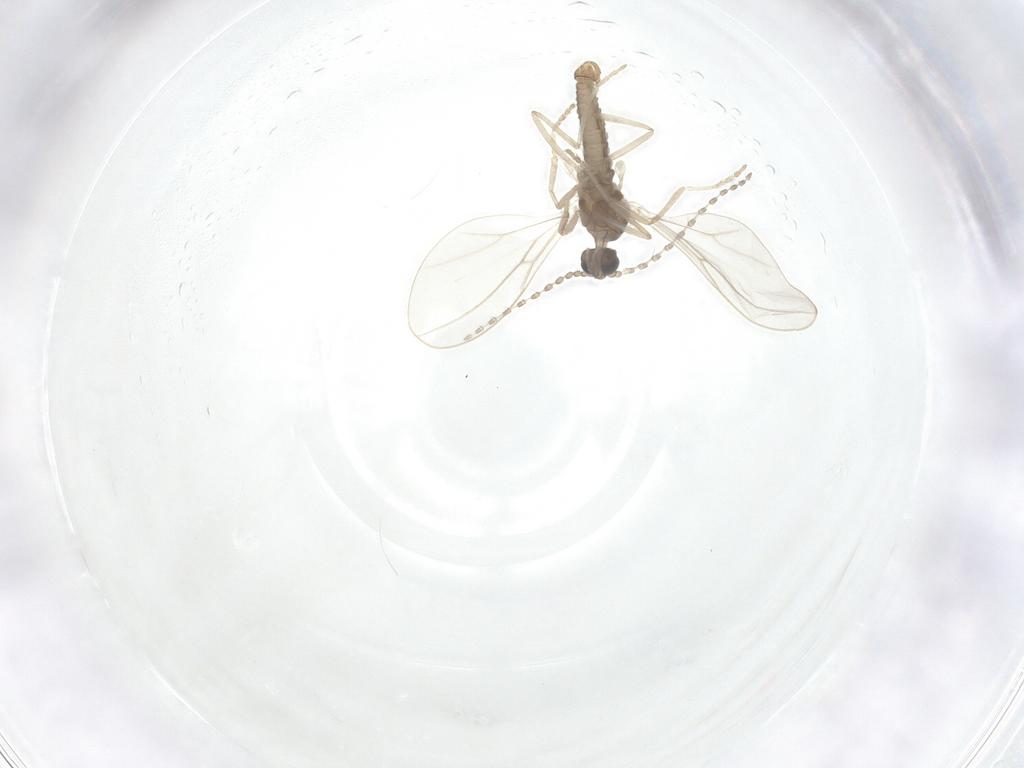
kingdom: Animalia
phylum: Arthropoda
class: Insecta
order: Diptera
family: Cecidomyiidae
